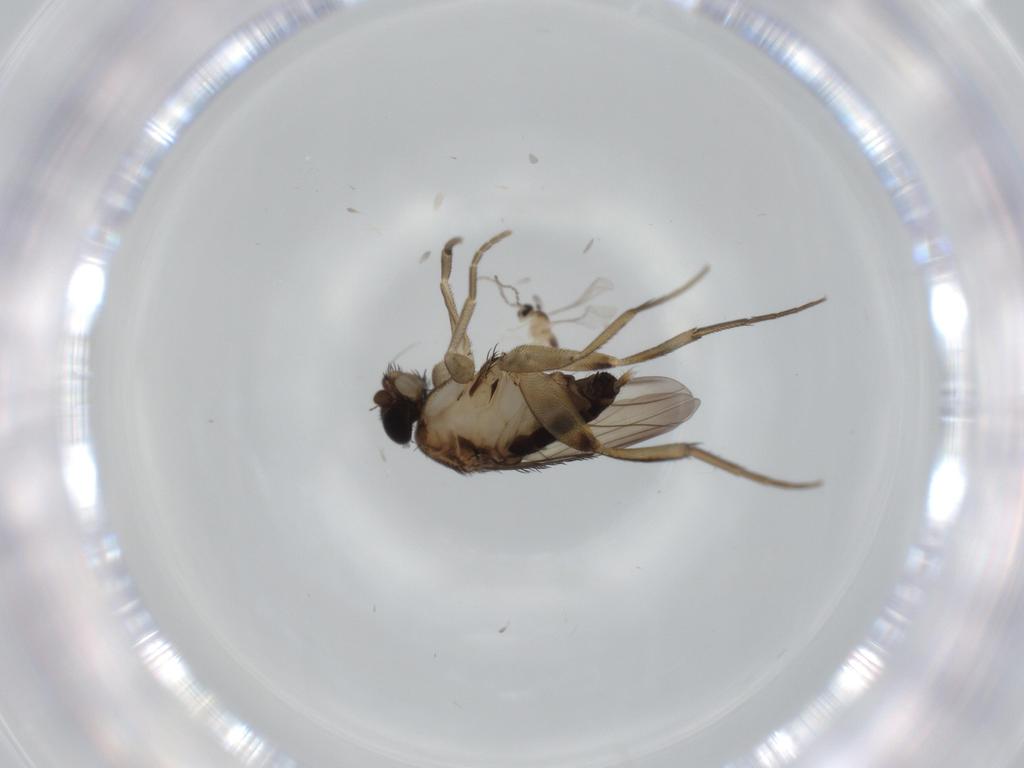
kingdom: Animalia
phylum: Arthropoda
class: Insecta
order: Diptera
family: Phoridae
